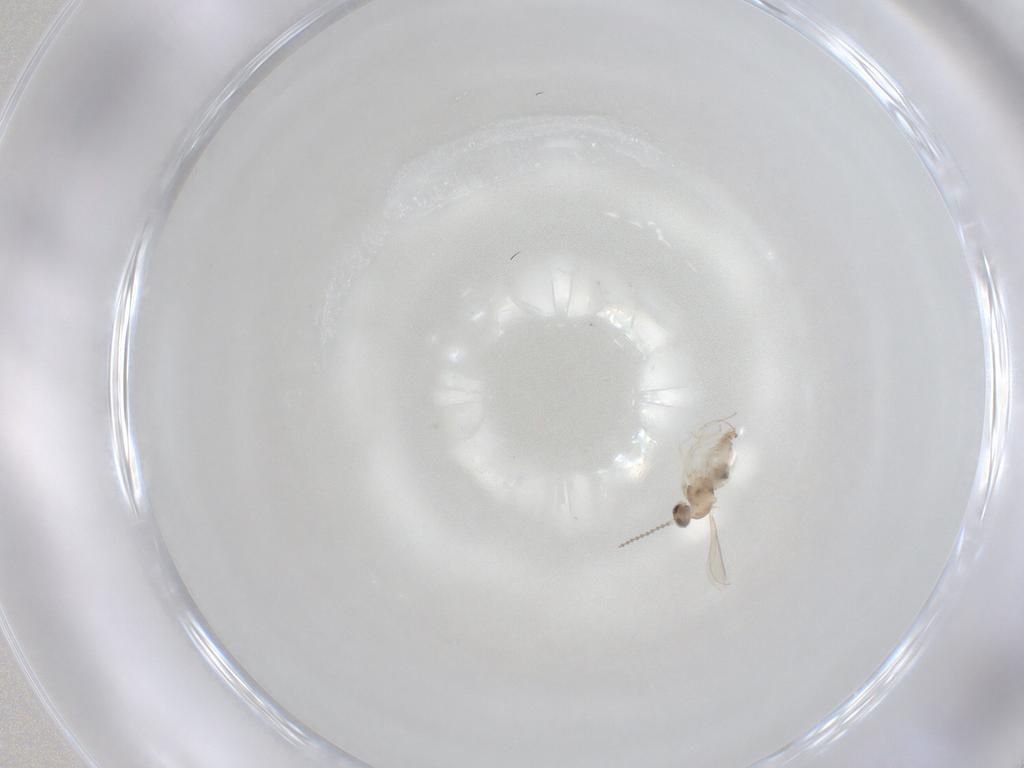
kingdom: Animalia
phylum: Arthropoda
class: Insecta
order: Diptera
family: Cecidomyiidae
